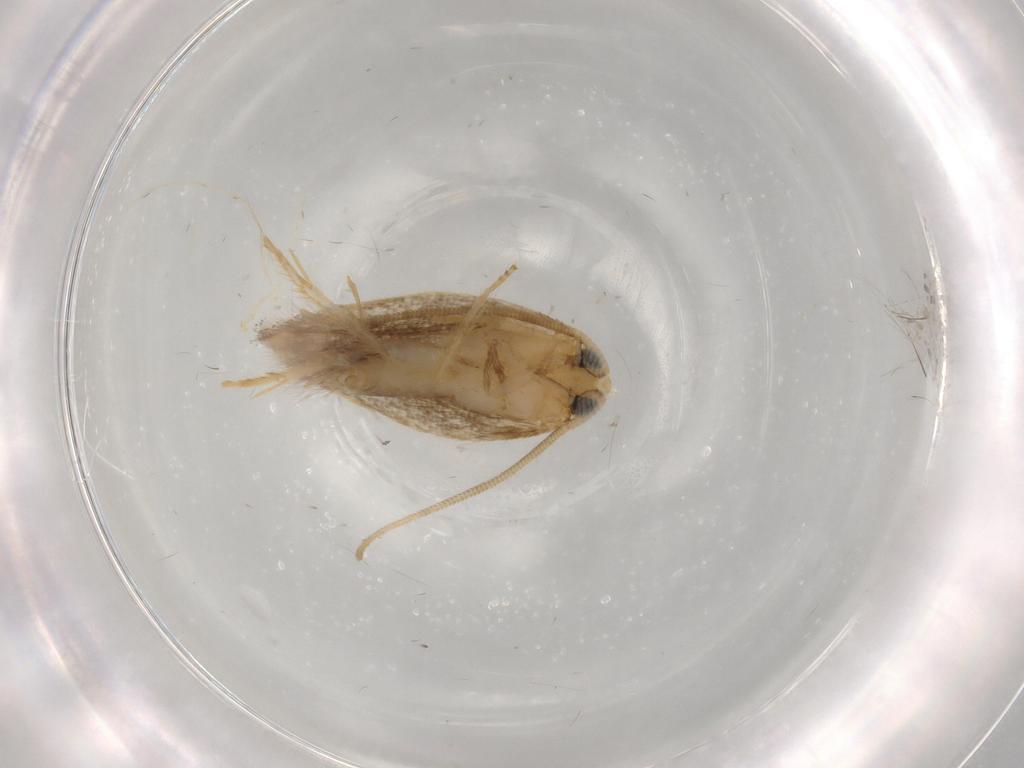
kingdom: Animalia
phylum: Arthropoda
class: Insecta
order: Lepidoptera
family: Opostegidae
